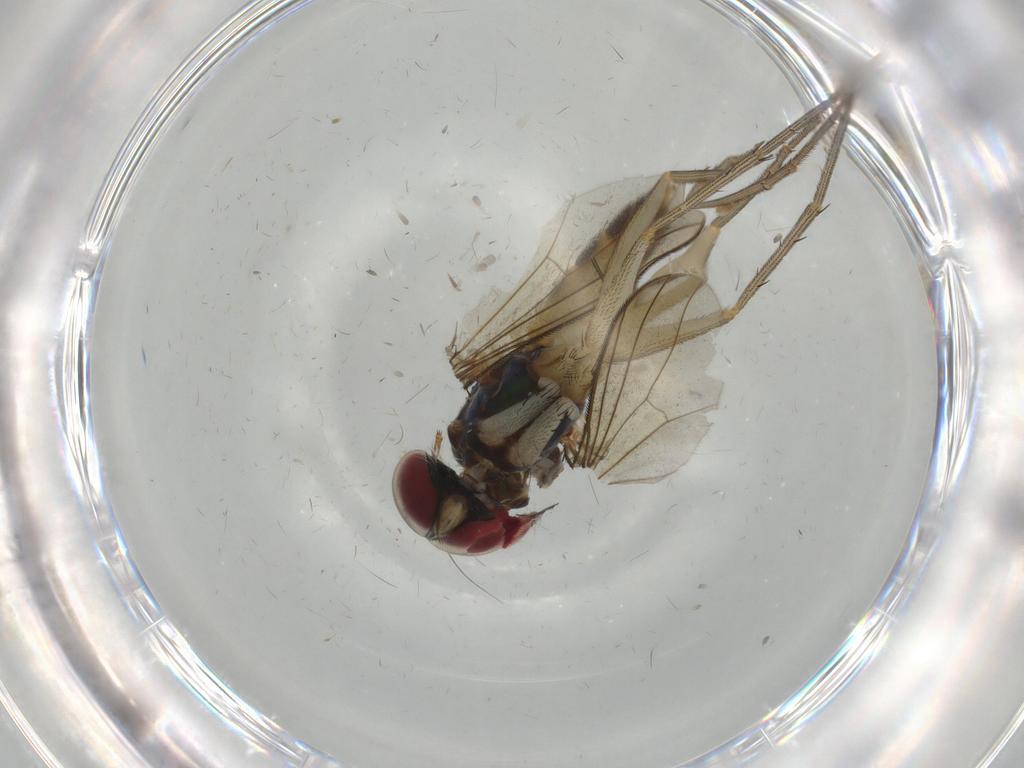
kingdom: Animalia
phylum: Arthropoda
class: Insecta
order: Diptera
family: Dolichopodidae
